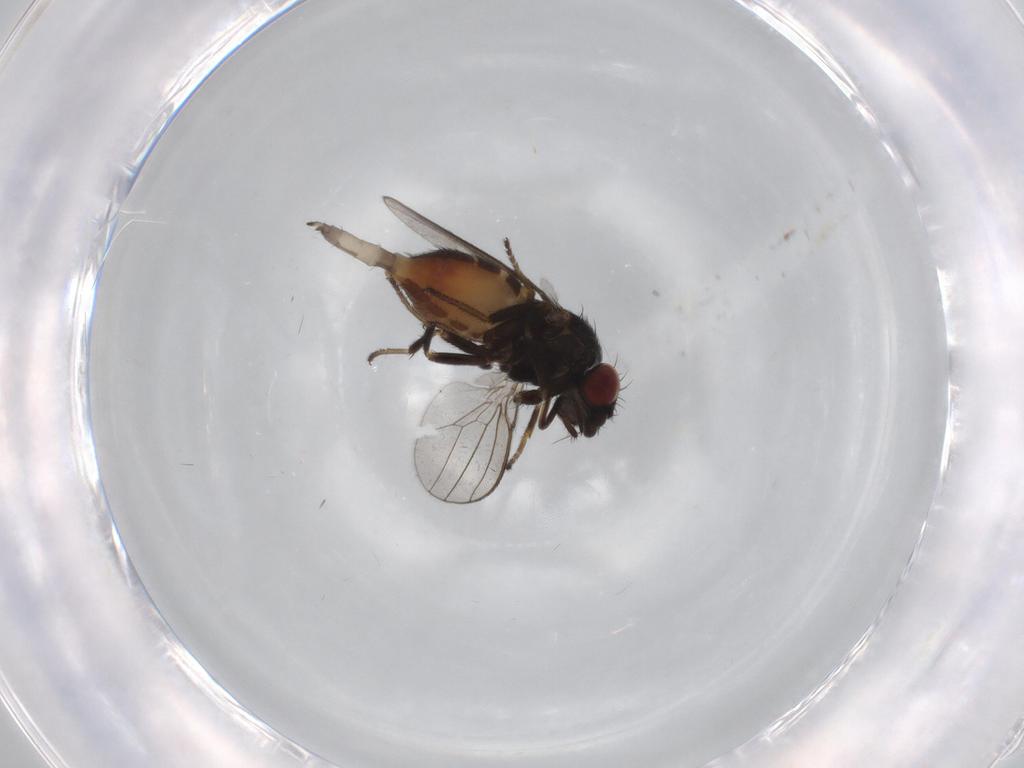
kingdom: Animalia
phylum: Arthropoda
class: Insecta
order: Diptera
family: Milichiidae
